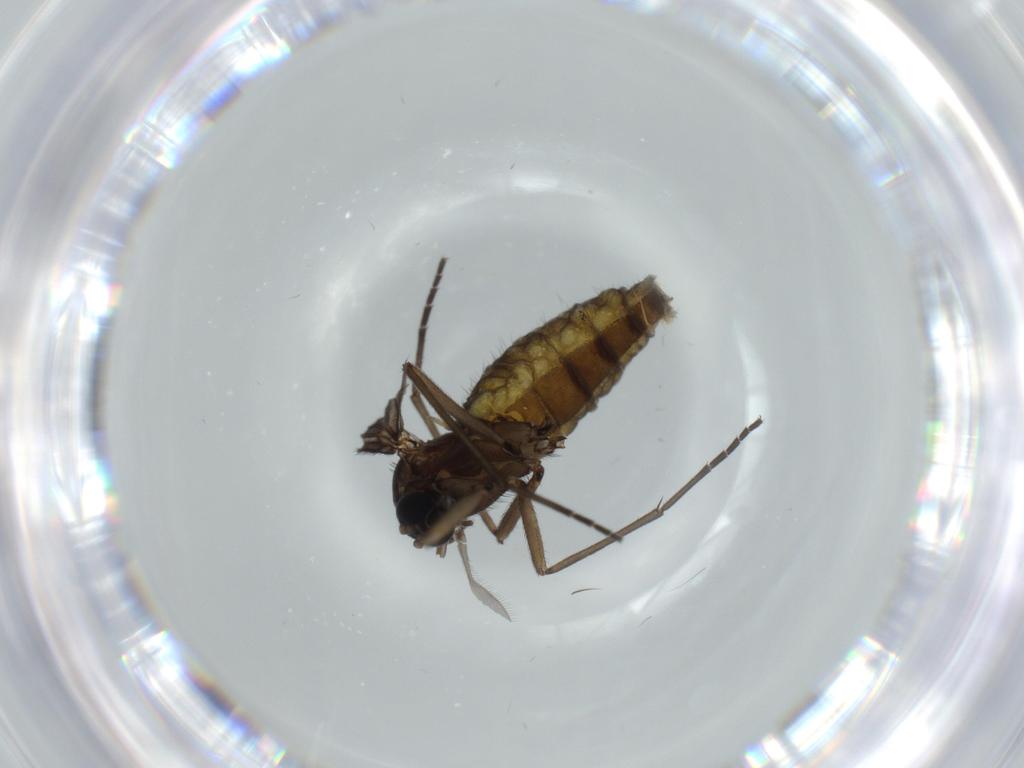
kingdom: Animalia
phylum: Arthropoda
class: Insecta
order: Diptera
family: Sciaridae
